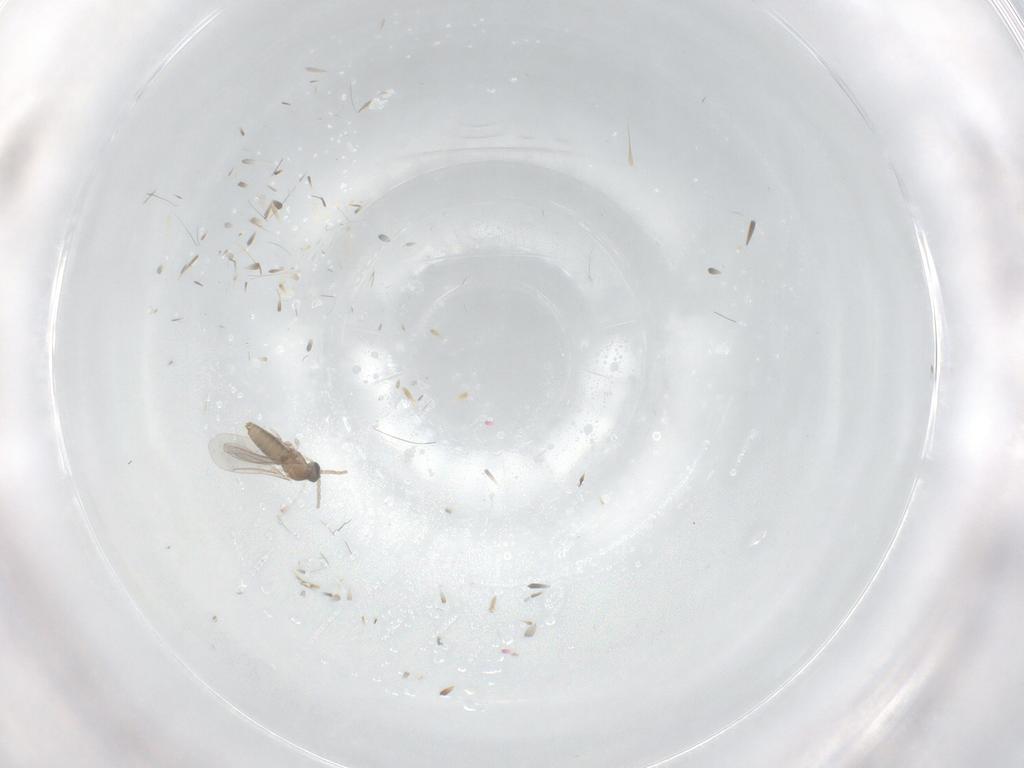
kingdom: Animalia
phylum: Arthropoda
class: Insecta
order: Diptera
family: Cecidomyiidae
